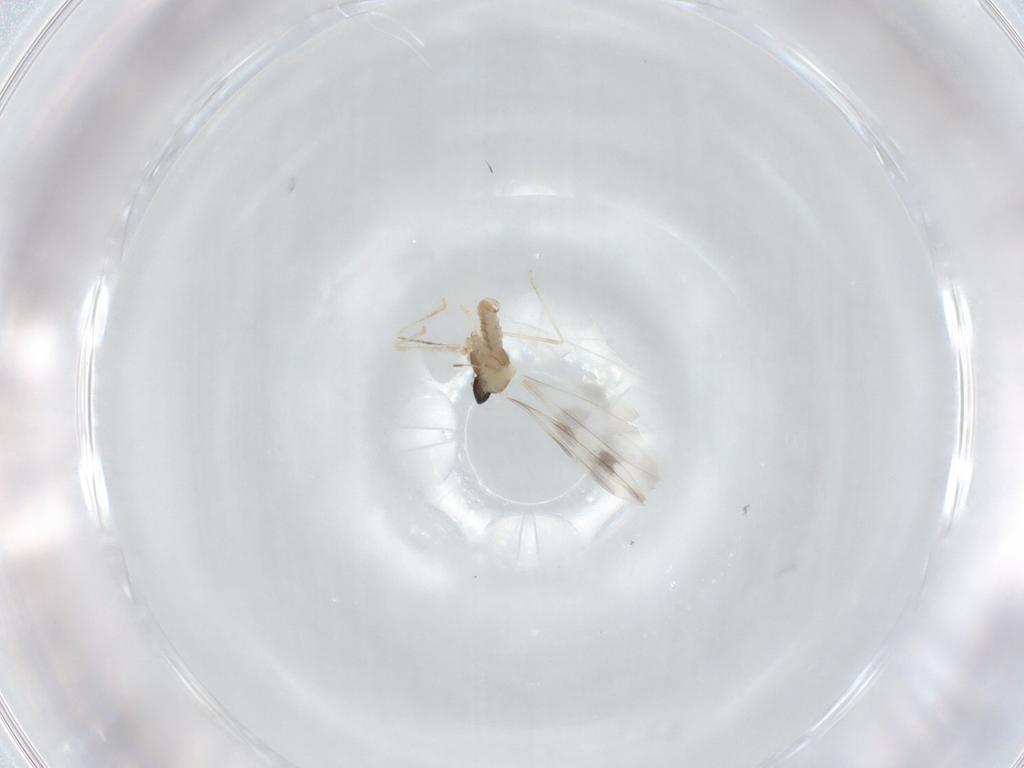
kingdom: Animalia
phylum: Arthropoda
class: Insecta
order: Diptera
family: Cecidomyiidae
